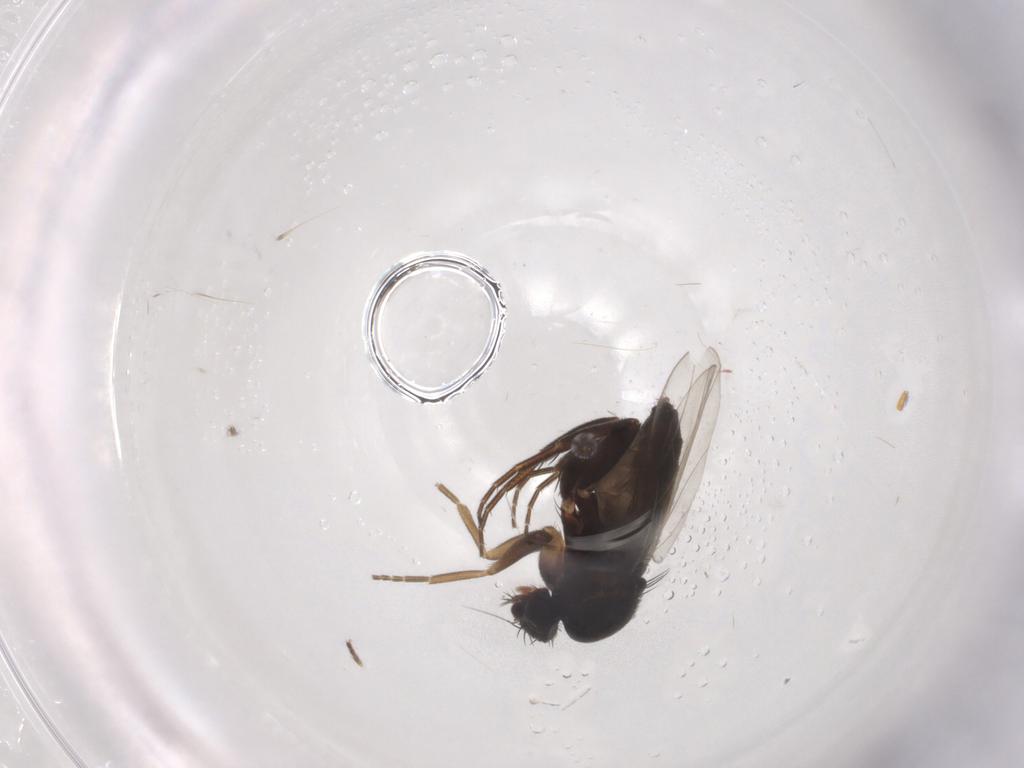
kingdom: Animalia
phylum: Arthropoda
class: Insecta
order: Diptera
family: Phoridae
